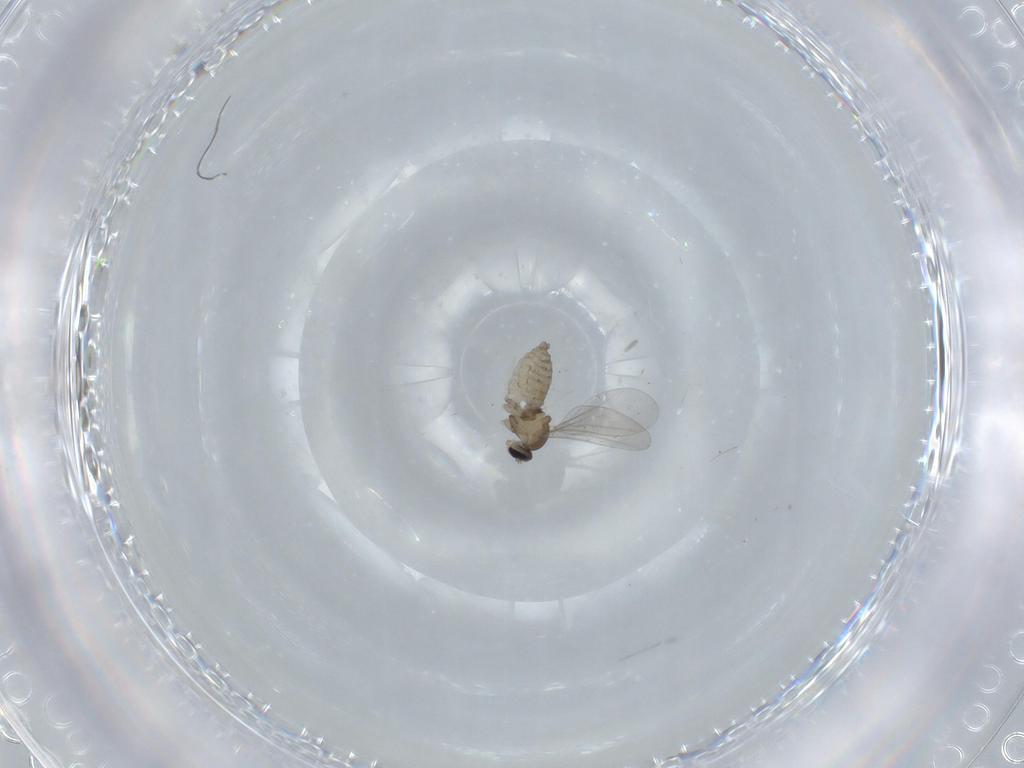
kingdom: Animalia
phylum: Arthropoda
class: Insecta
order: Diptera
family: Cecidomyiidae
